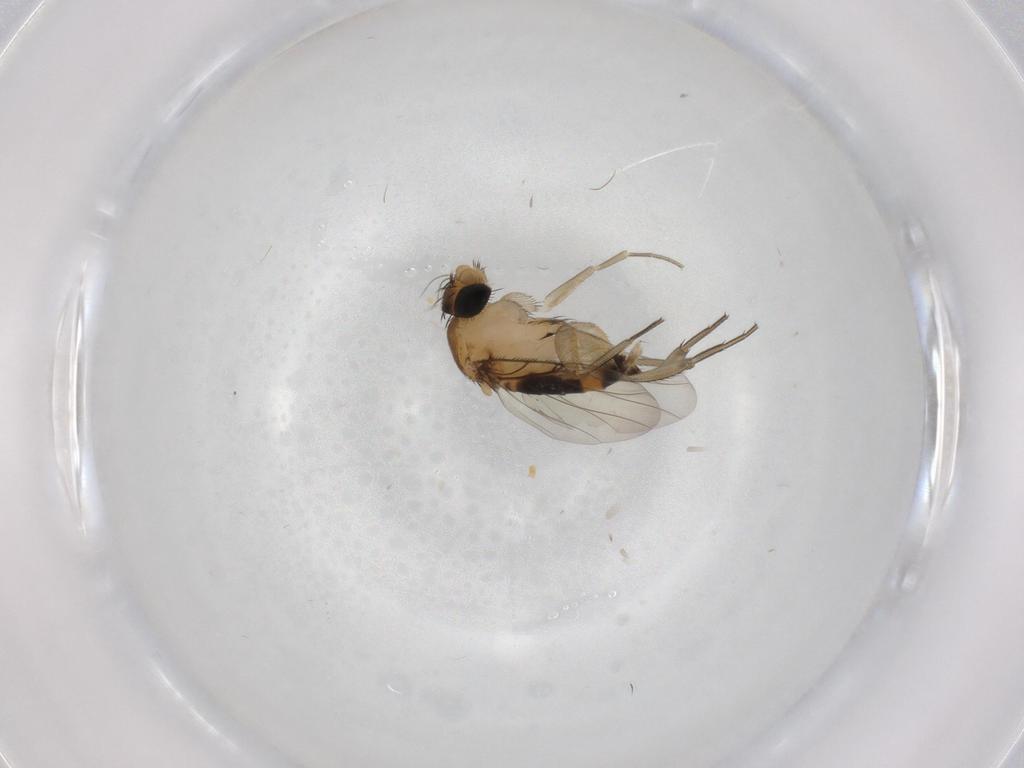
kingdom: Animalia
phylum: Arthropoda
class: Insecta
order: Diptera
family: Phoridae
